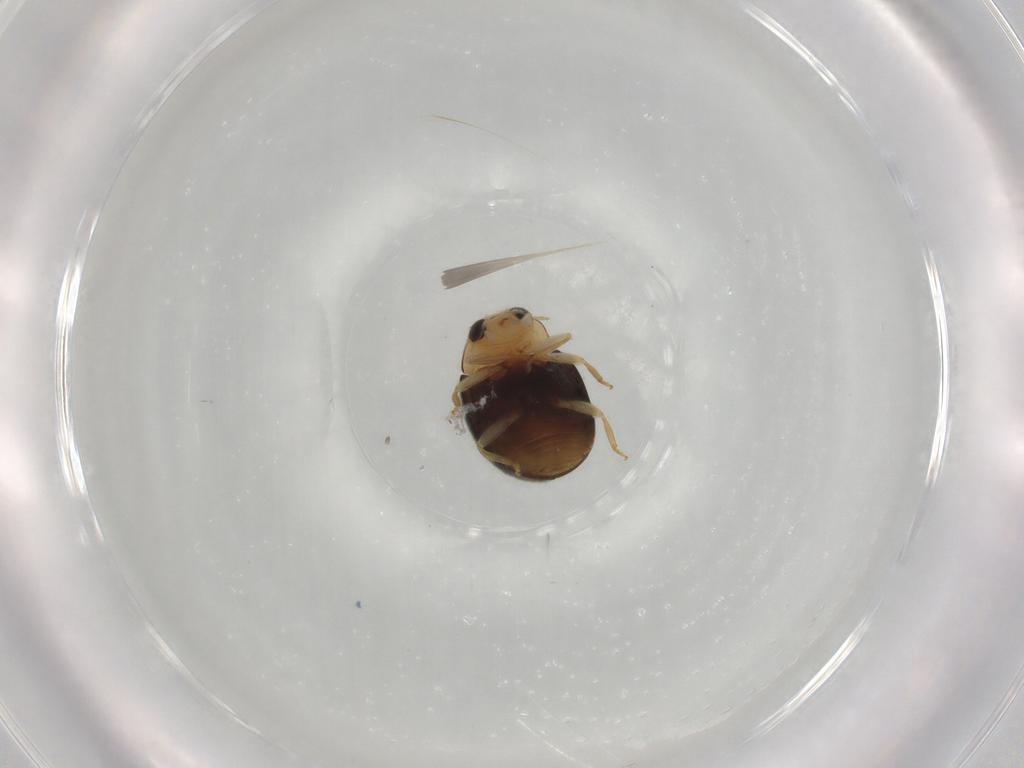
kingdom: Animalia
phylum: Arthropoda
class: Insecta
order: Coleoptera
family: Coccinellidae
